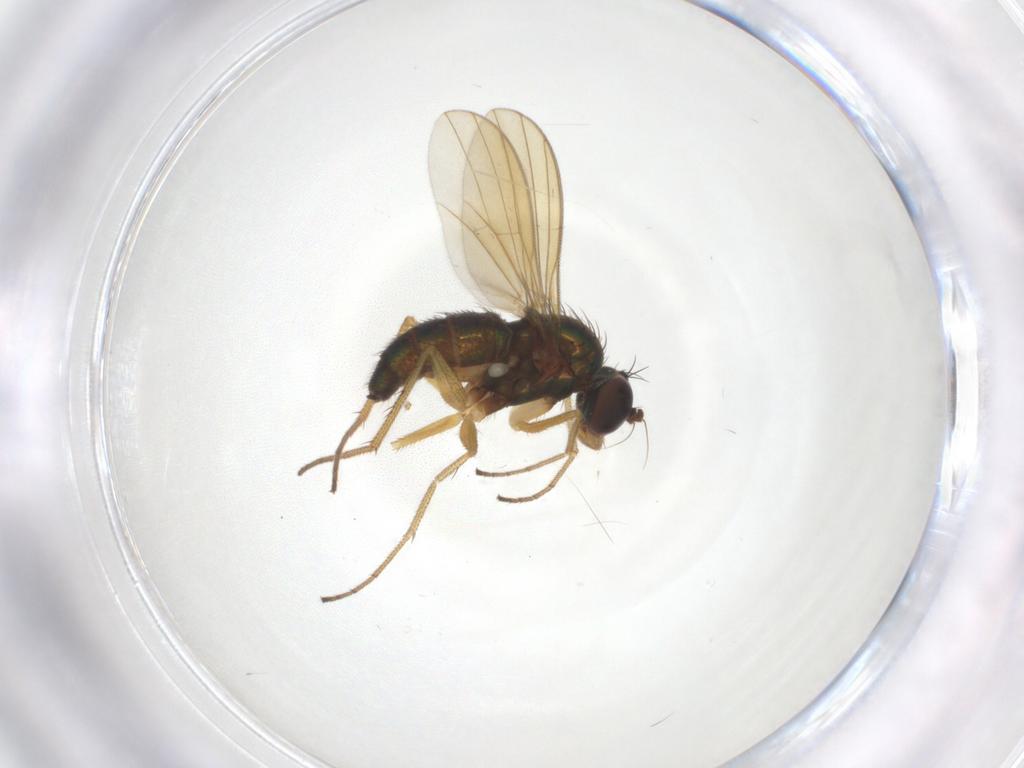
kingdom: Animalia
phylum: Arthropoda
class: Insecta
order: Diptera
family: Dolichopodidae
